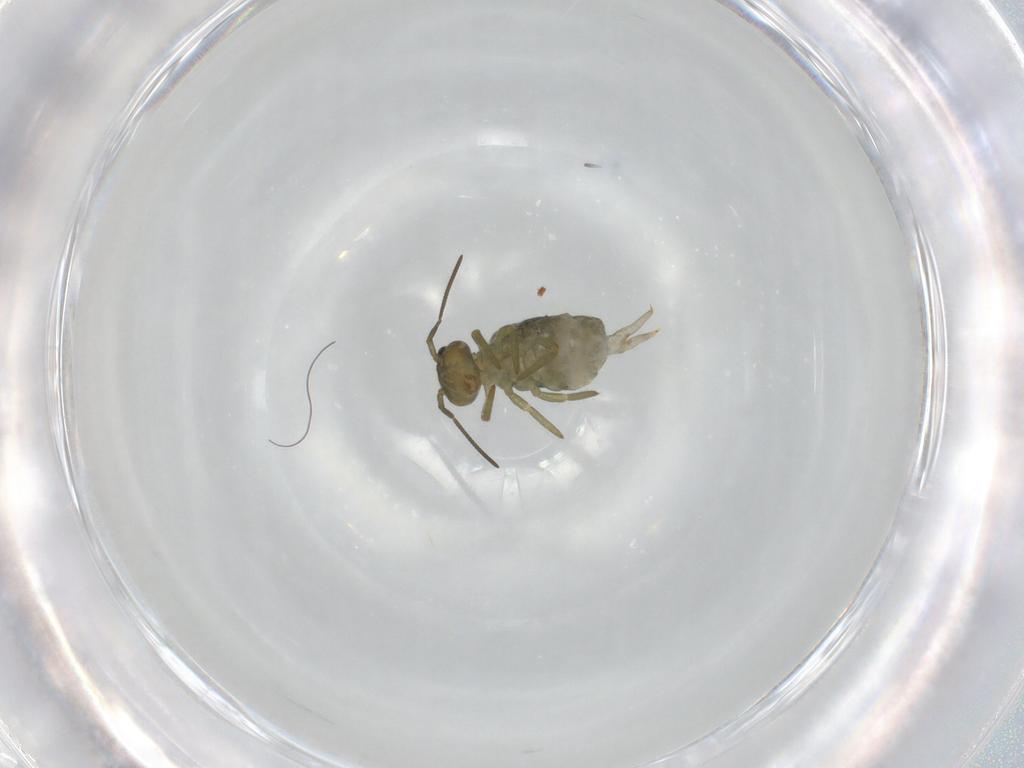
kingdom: Animalia
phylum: Arthropoda
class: Collembola
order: Symphypleona
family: Sminthuridae
